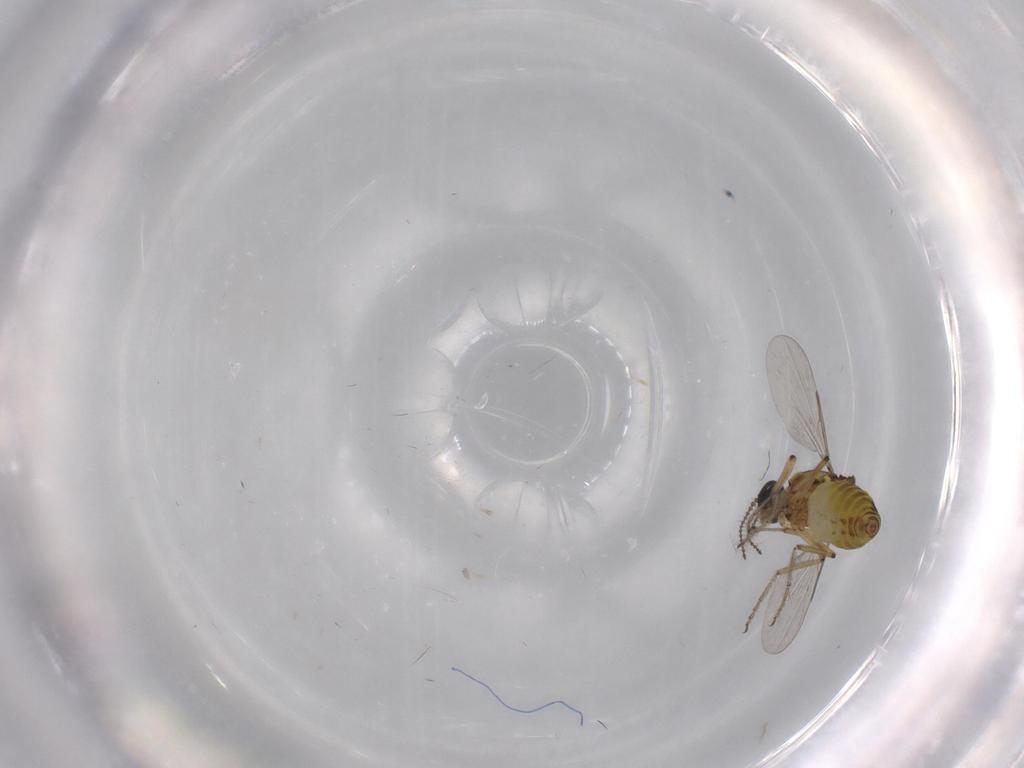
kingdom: Animalia
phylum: Arthropoda
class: Insecta
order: Diptera
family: Ceratopogonidae
